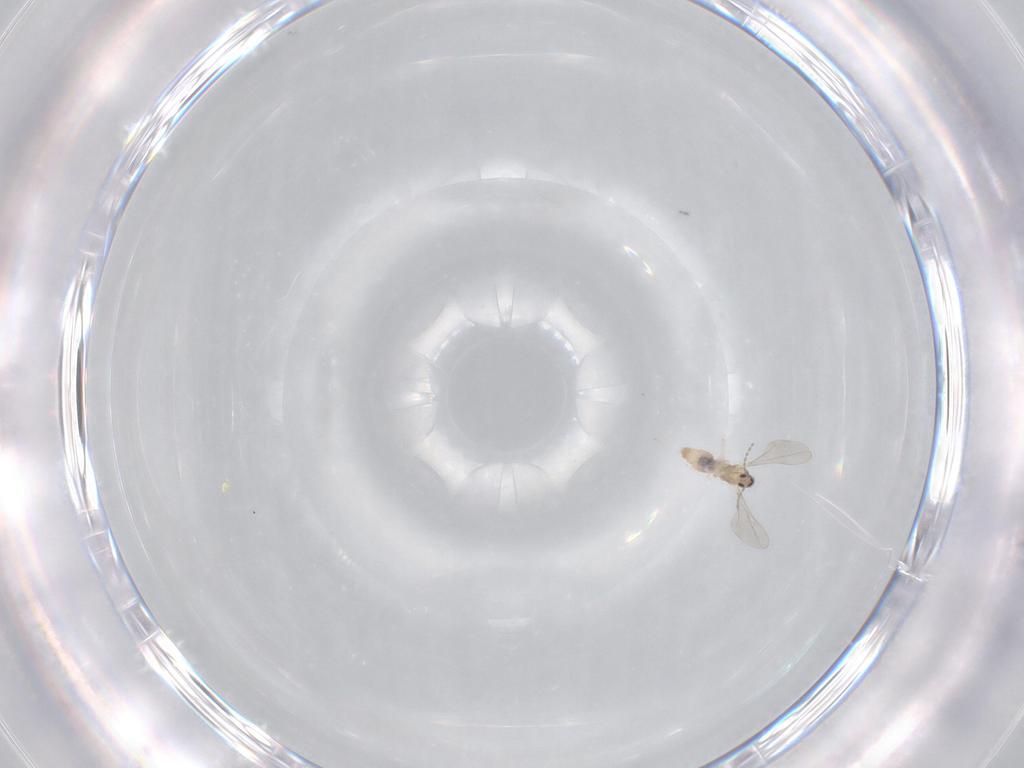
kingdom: Animalia
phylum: Arthropoda
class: Insecta
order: Diptera
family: Cecidomyiidae
